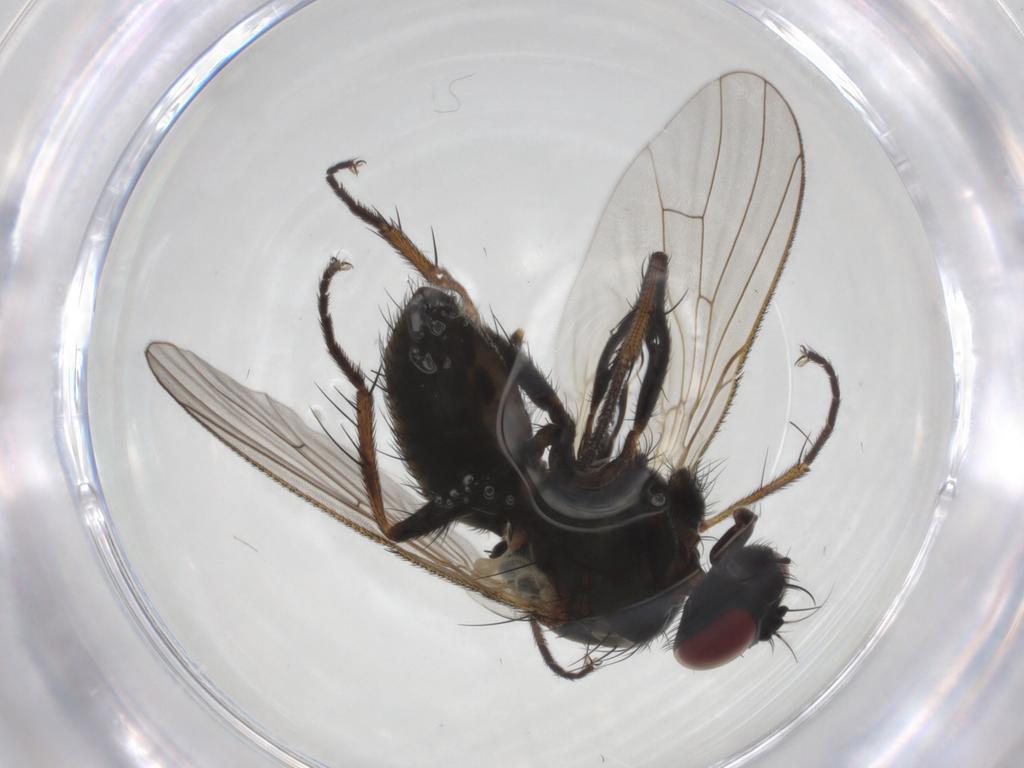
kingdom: Animalia
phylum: Arthropoda
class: Insecta
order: Diptera
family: Muscidae
